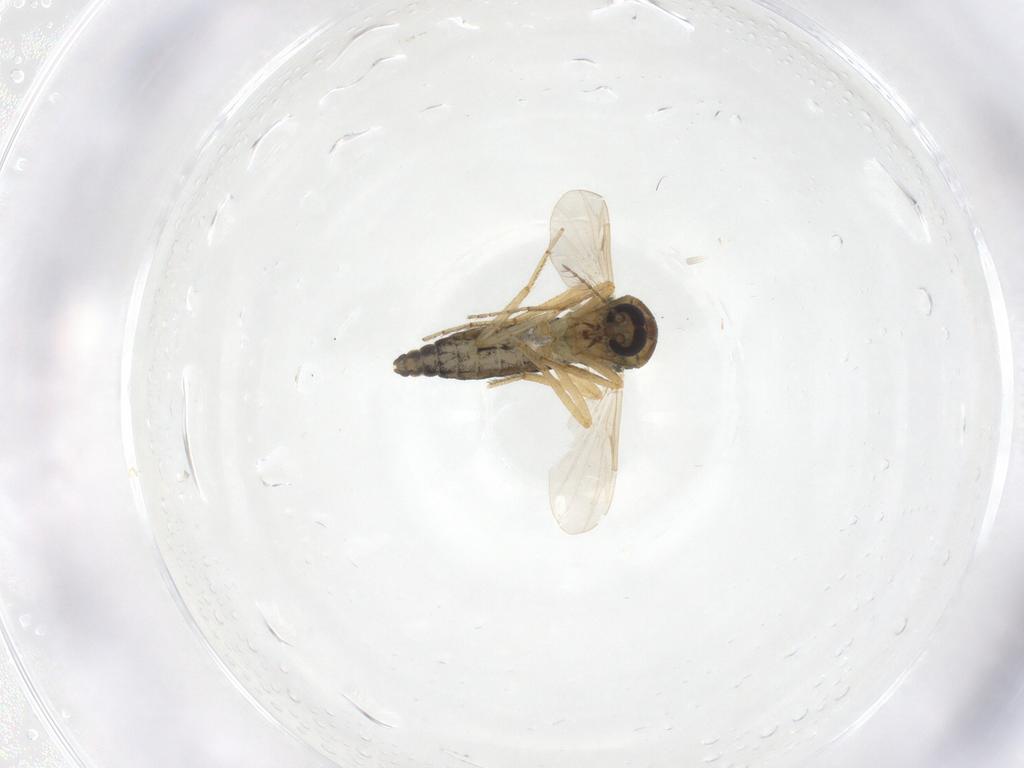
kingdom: Animalia
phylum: Arthropoda
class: Insecta
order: Diptera
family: Ceratopogonidae
